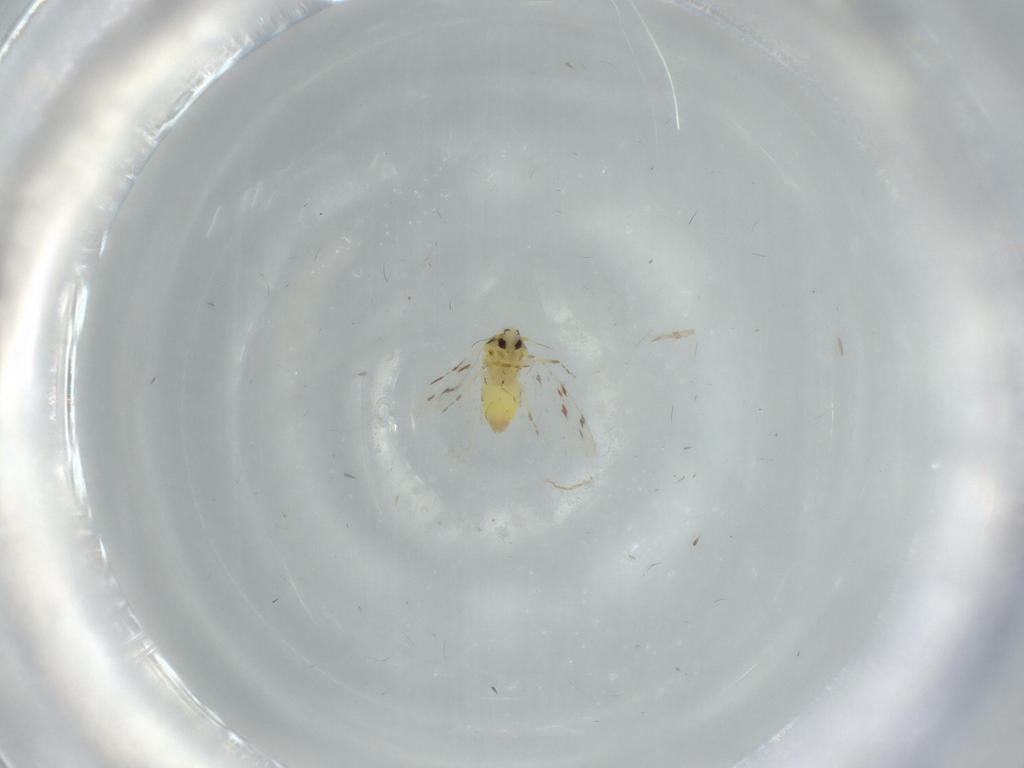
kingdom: Animalia
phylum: Arthropoda
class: Insecta
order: Hemiptera
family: Aleyrodidae
